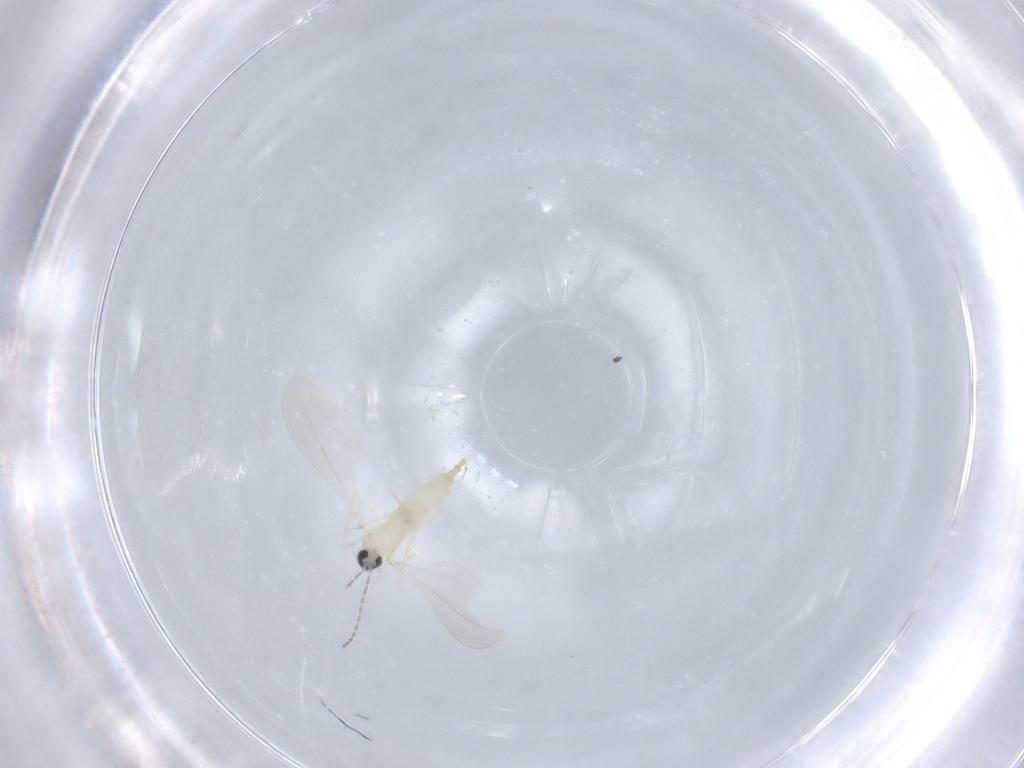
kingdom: Animalia
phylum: Arthropoda
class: Insecta
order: Diptera
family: Cecidomyiidae
